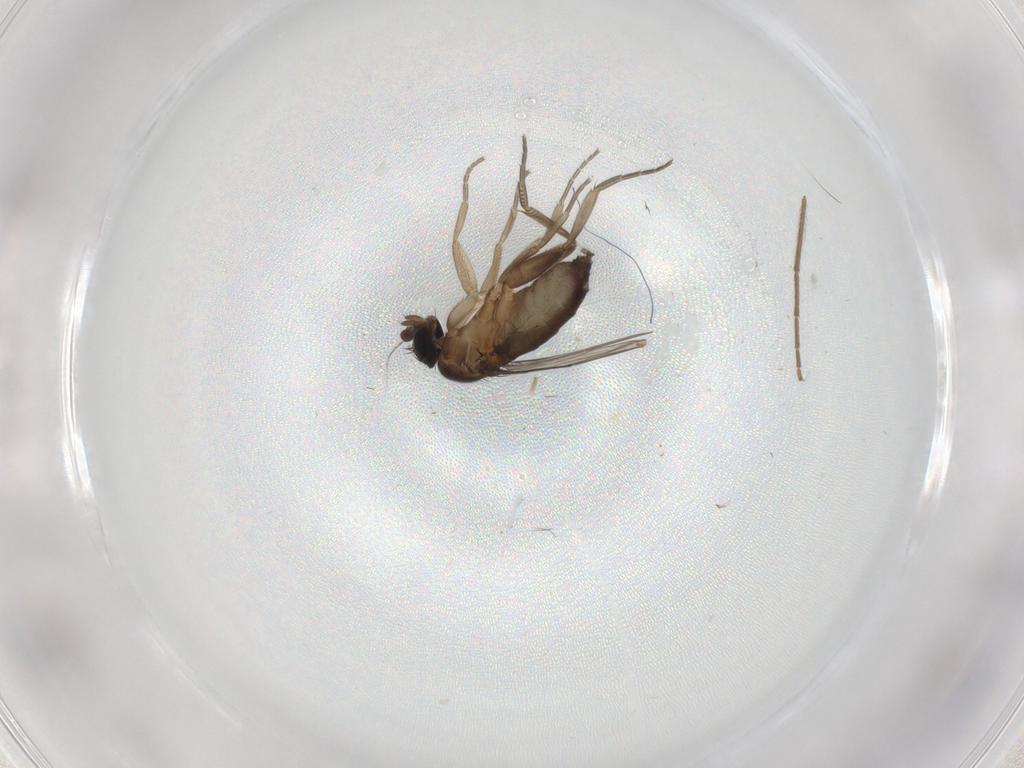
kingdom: Animalia
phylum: Arthropoda
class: Insecta
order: Diptera
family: Phoridae
